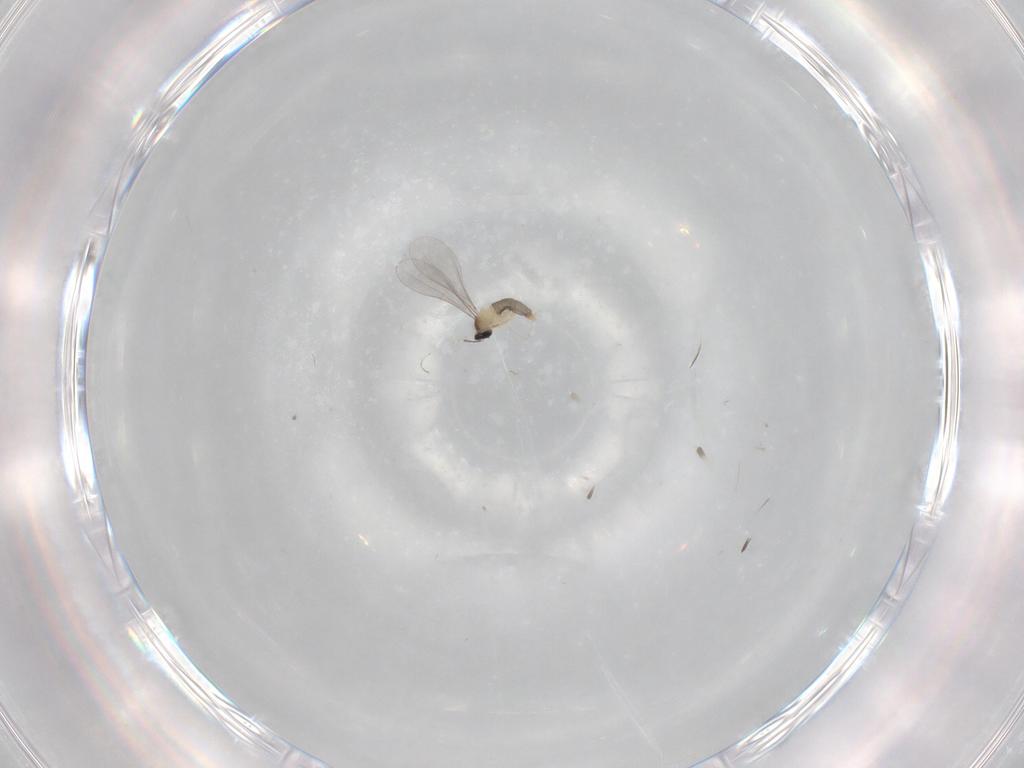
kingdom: Animalia
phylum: Arthropoda
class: Insecta
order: Diptera
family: Cecidomyiidae
